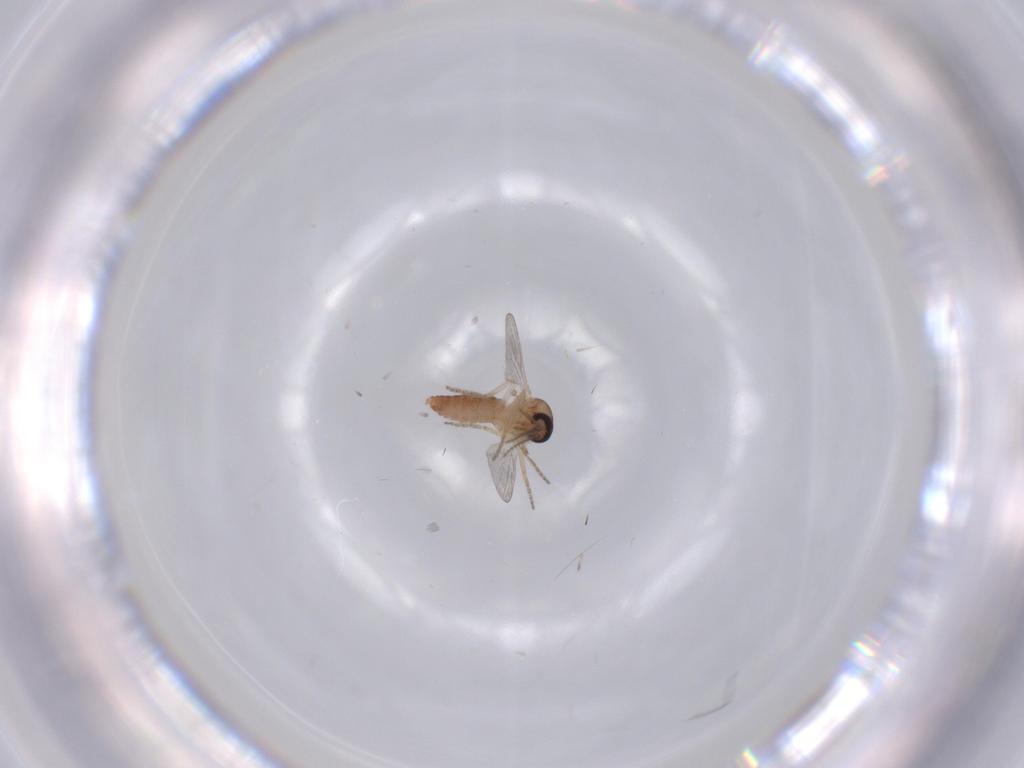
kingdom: Animalia
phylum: Arthropoda
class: Insecta
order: Diptera
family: Ceratopogonidae
